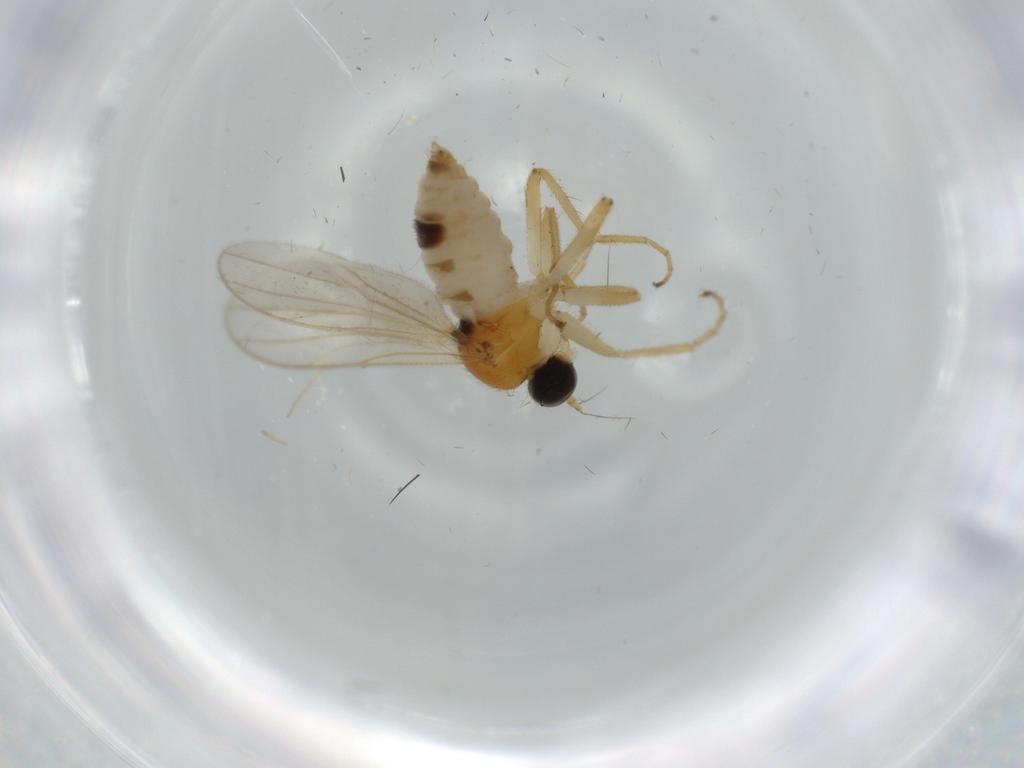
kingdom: Animalia
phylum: Arthropoda
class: Insecta
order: Diptera
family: Hybotidae
